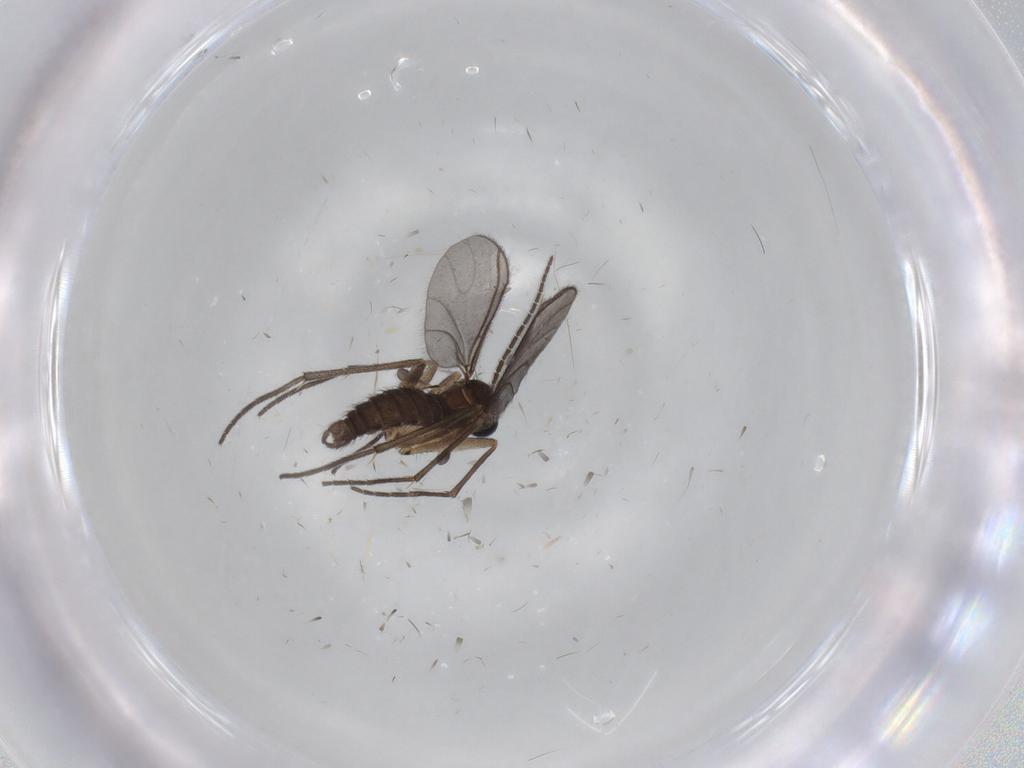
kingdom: Animalia
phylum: Arthropoda
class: Insecta
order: Diptera
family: Sciaridae
